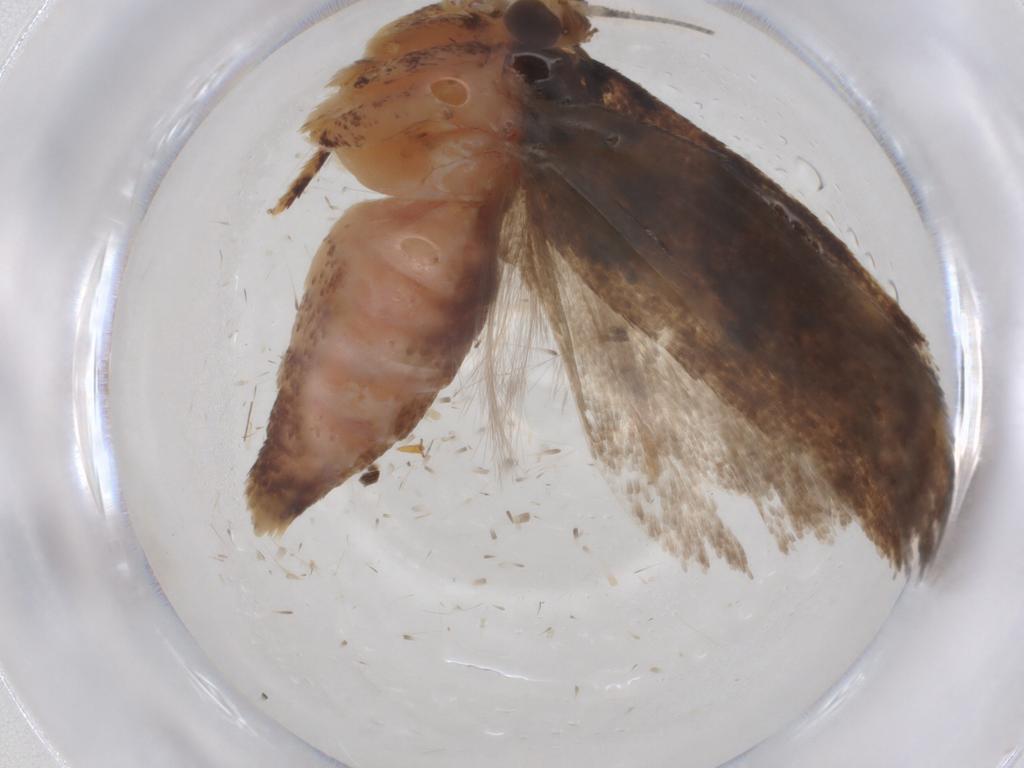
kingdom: Animalia
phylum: Arthropoda
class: Insecta
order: Lepidoptera
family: Gelechiidae
